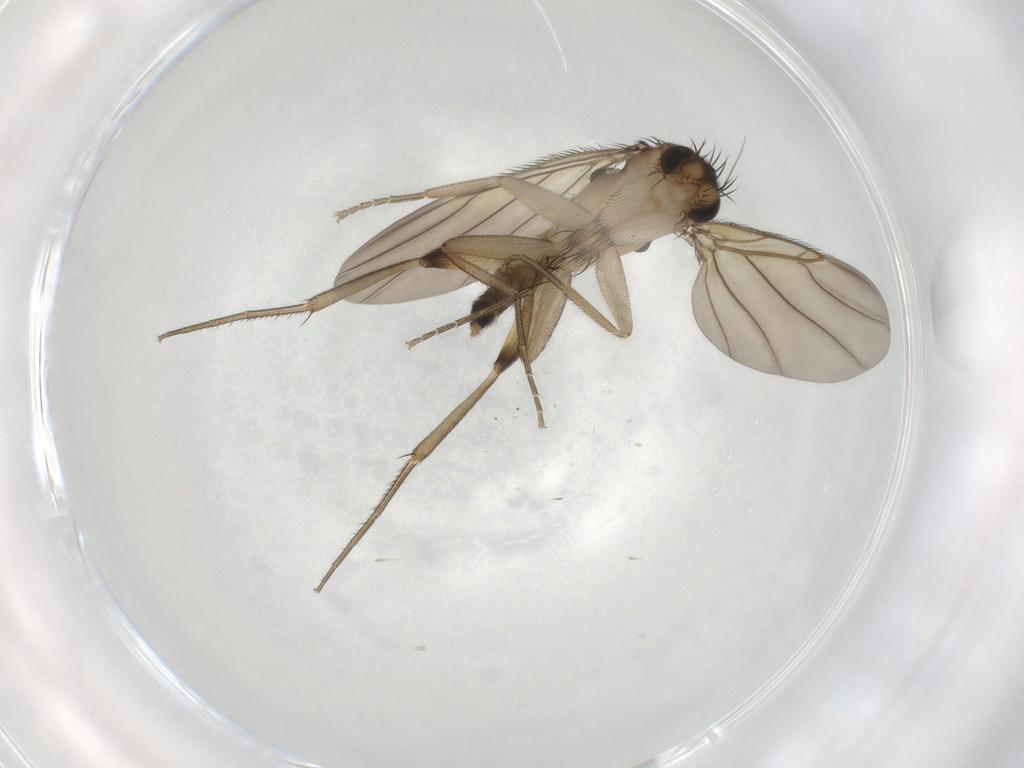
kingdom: Animalia
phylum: Arthropoda
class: Insecta
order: Diptera
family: Phoridae
